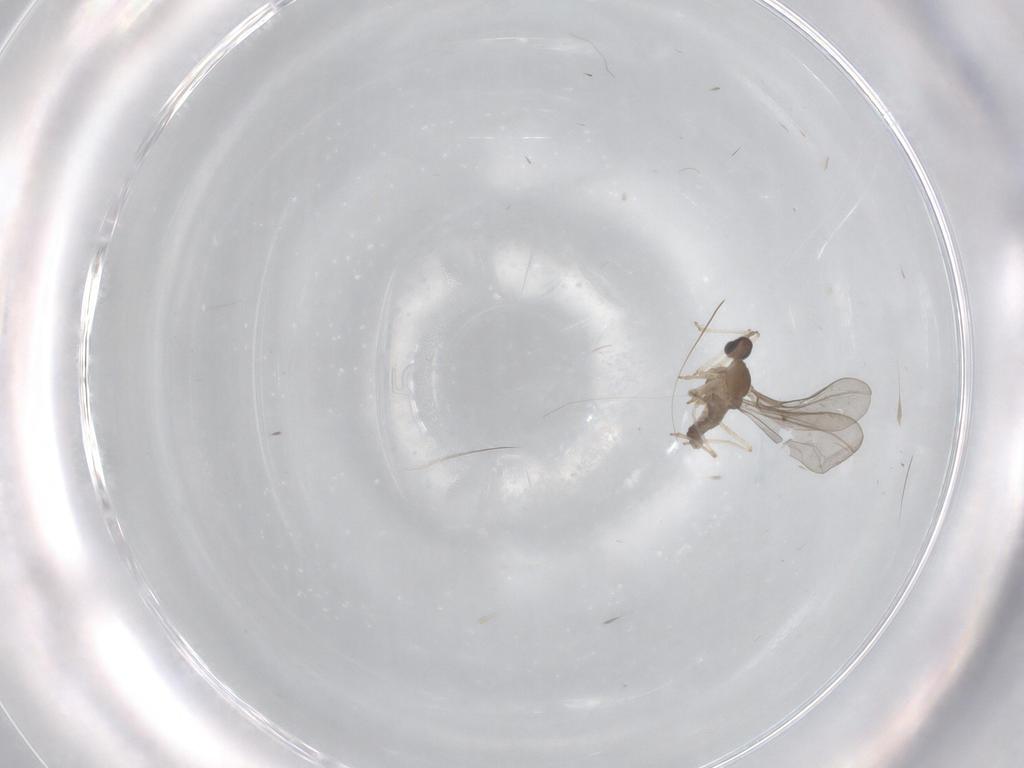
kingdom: Animalia
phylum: Arthropoda
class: Insecta
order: Diptera
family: Cecidomyiidae
